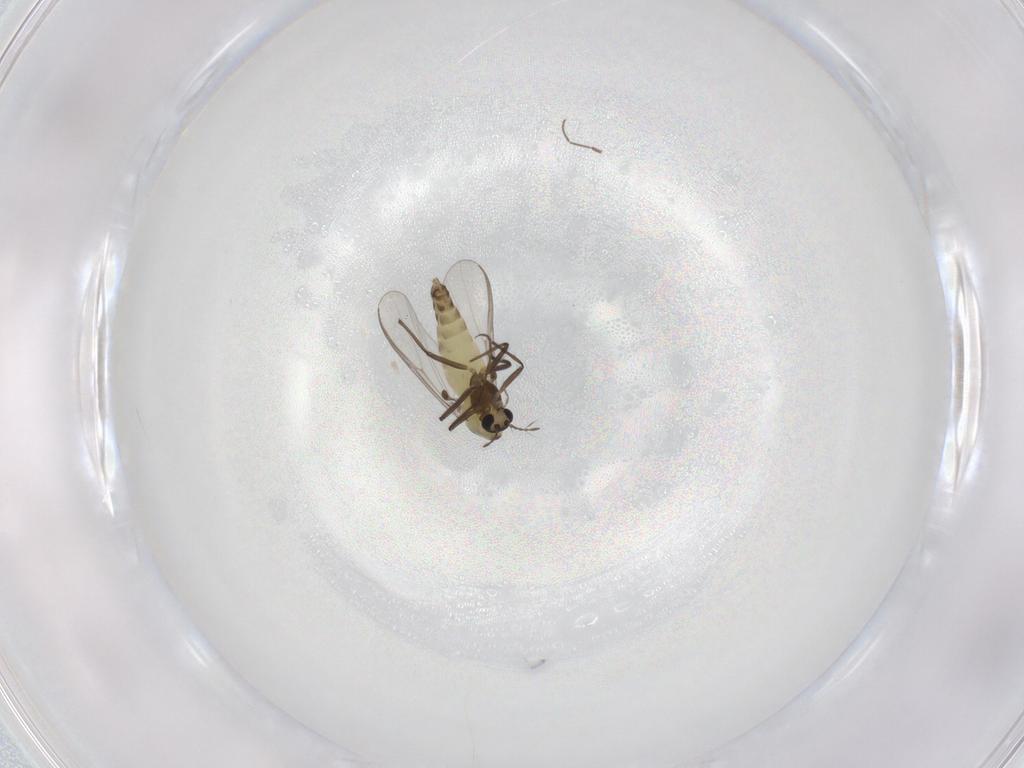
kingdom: Animalia
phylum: Arthropoda
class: Insecta
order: Diptera
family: Chironomidae
